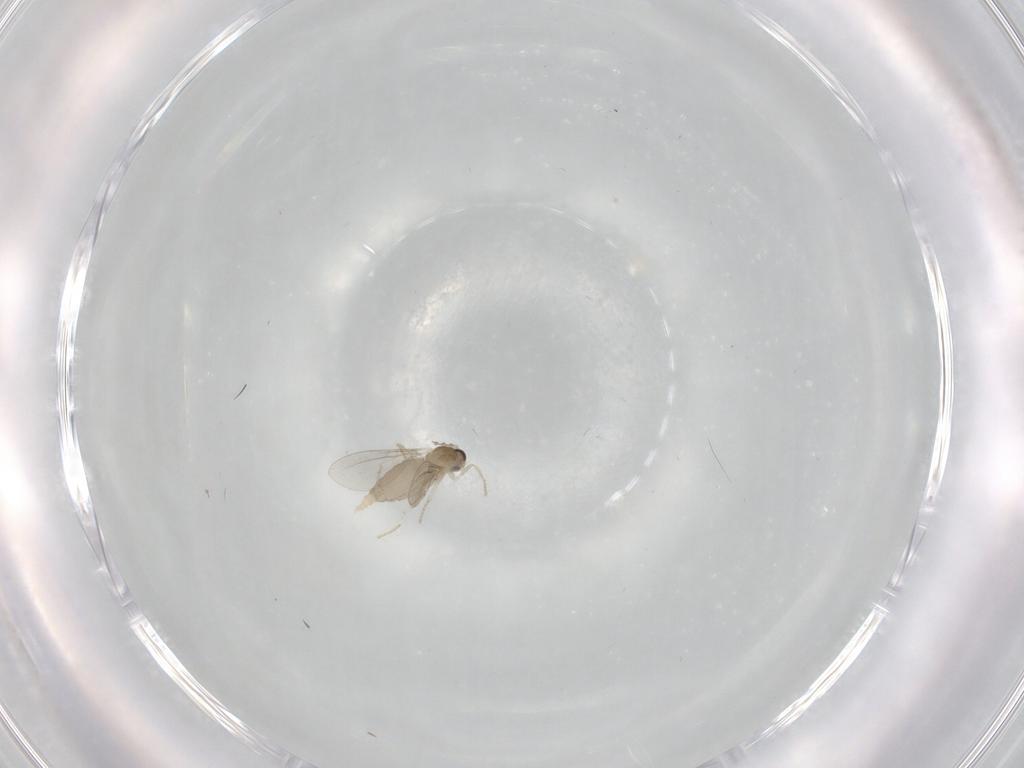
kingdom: Animalia
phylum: Arthropoda
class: Insecta
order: Diptera
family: Cecidomyiidae
